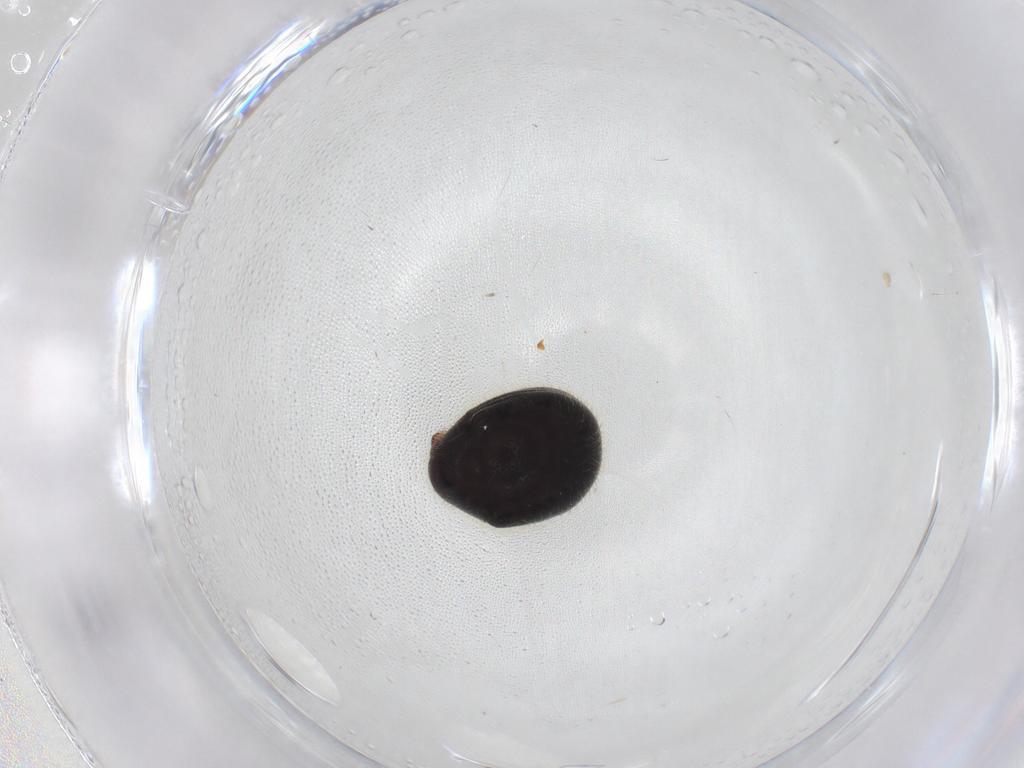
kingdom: Animalia
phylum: Arthropoda
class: Insecta
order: Coleoptera
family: Ptinidae
